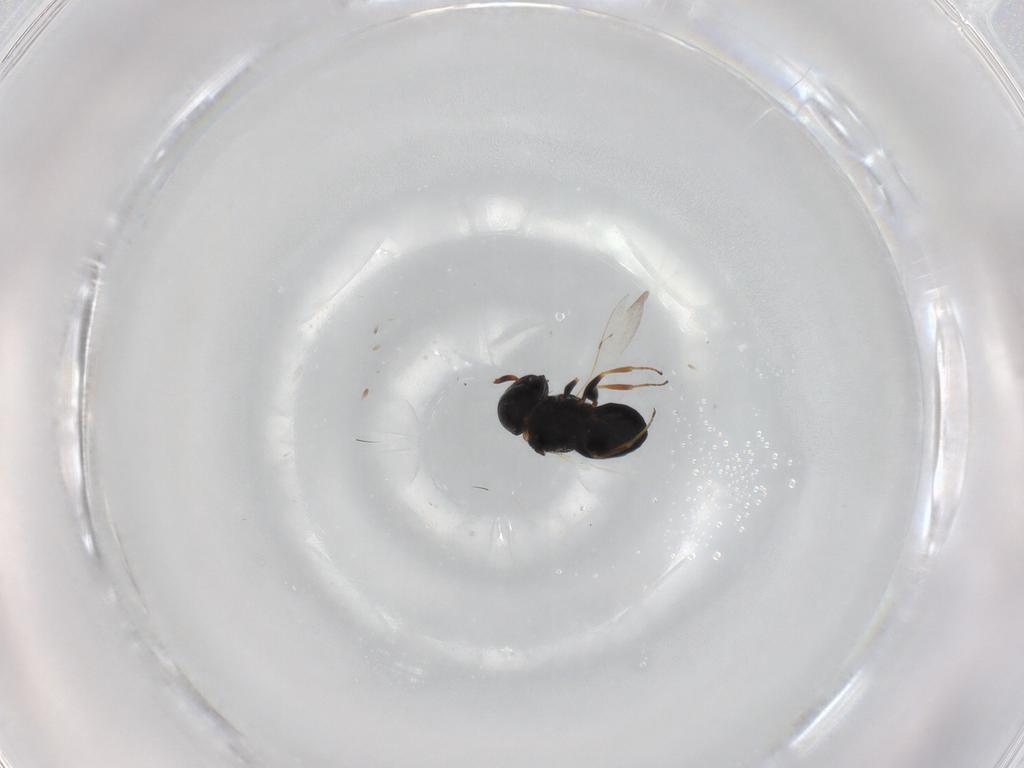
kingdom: Animalia
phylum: Arthropoda
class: Insecta
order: Coleoptera
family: Curculionidae
